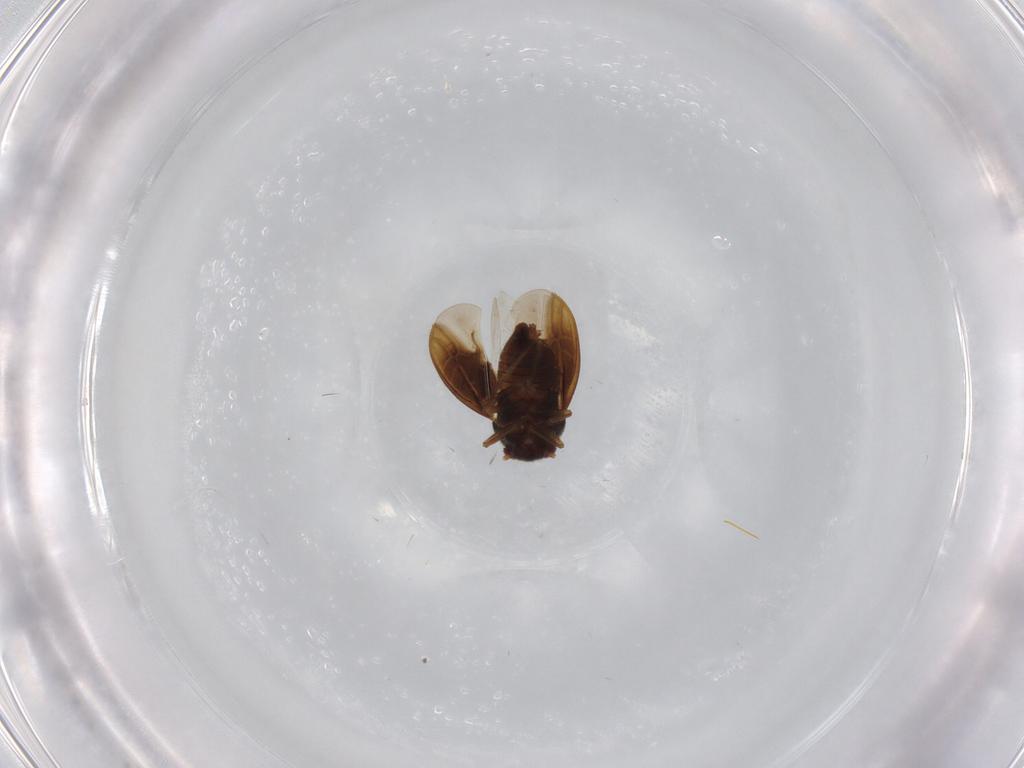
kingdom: Animalia
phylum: Arthropoda
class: Insecta
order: Hemiptera
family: Schizopteridae
